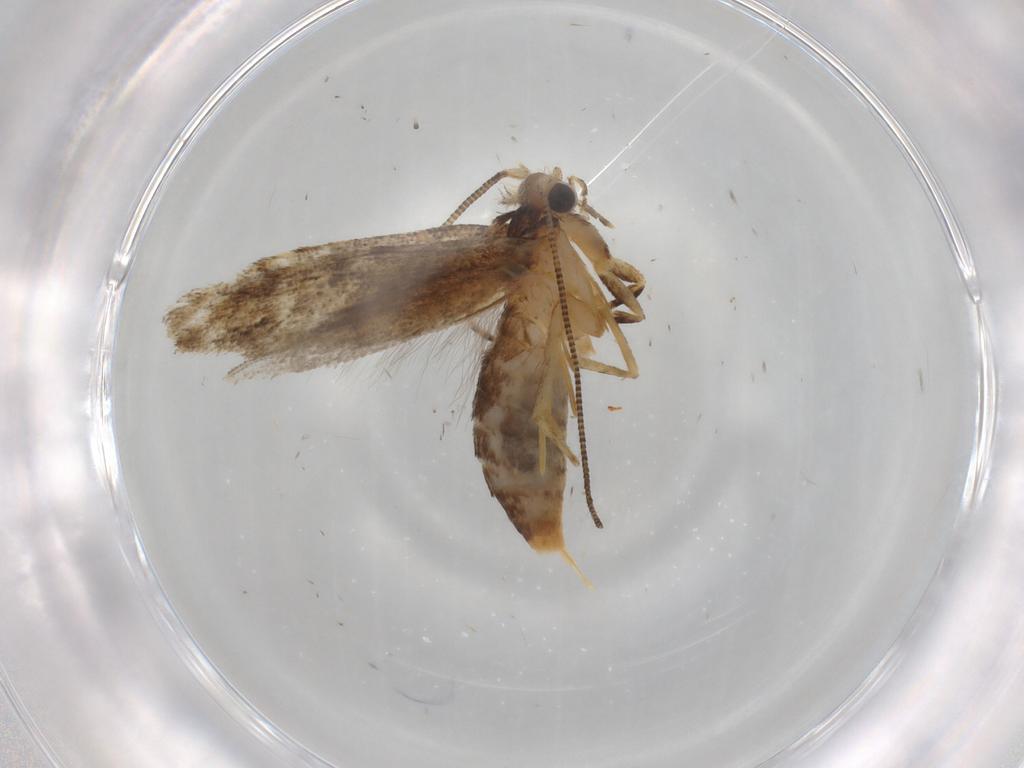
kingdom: Animalia
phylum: Arthropoda
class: Insecta
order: Lepidoptera
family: Nepticulidae
